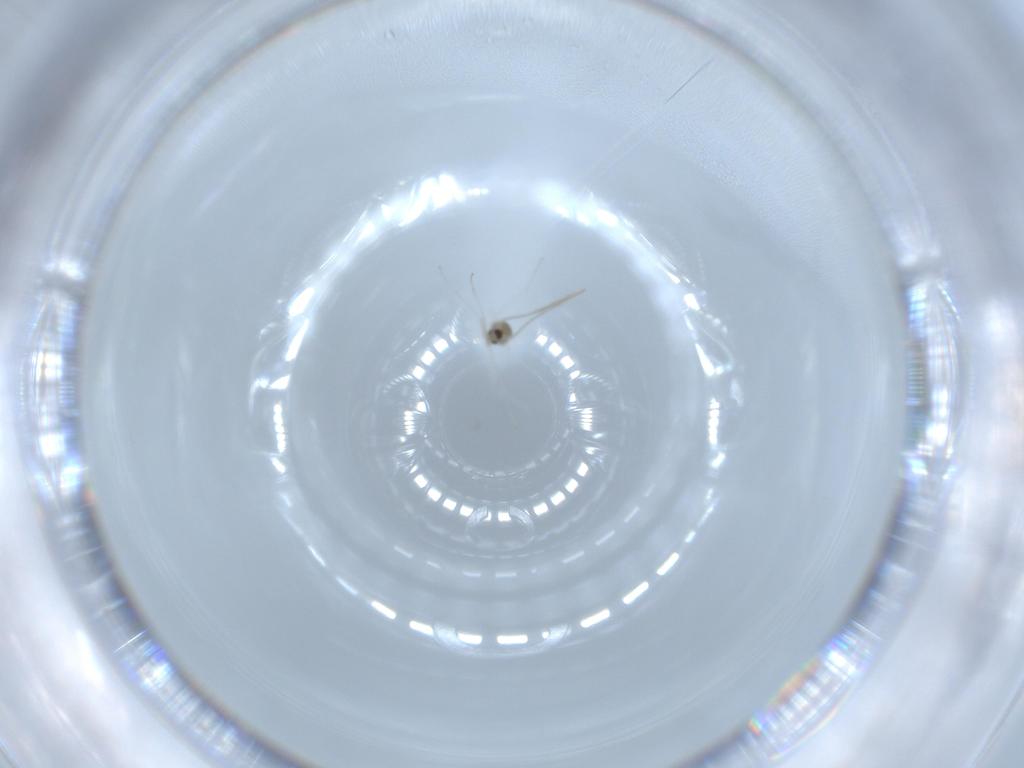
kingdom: Animalia
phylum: Arthropoda
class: Insecta
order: Diptera
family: Cecidomyiidae
